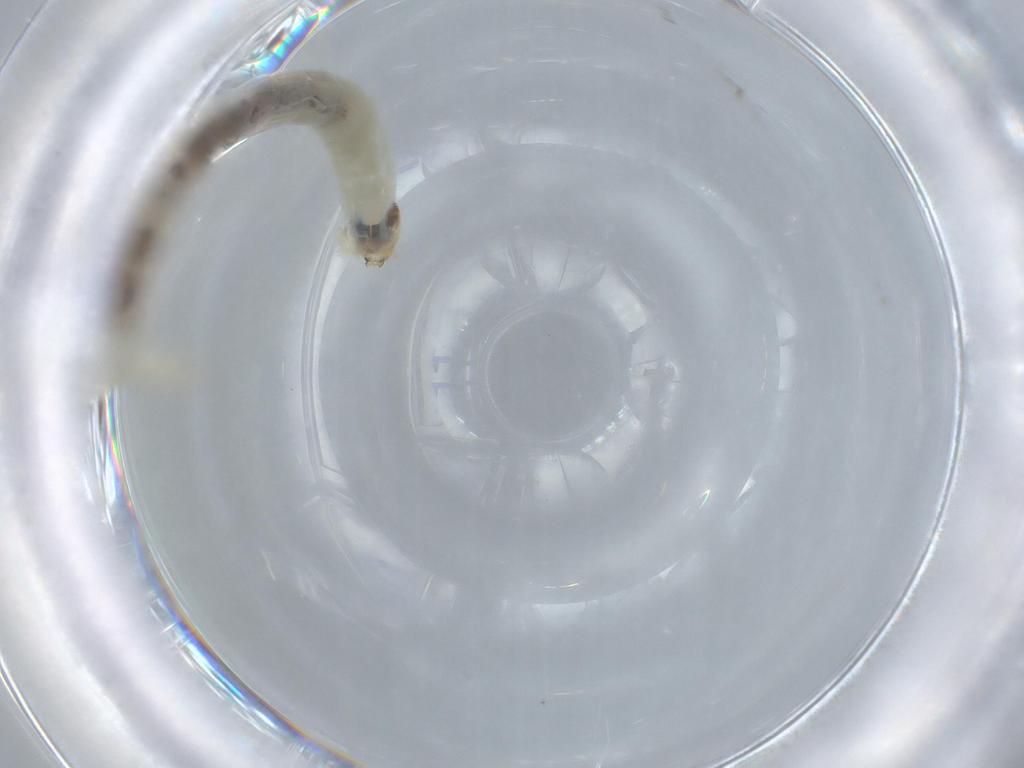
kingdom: Animalia
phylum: Arthropoda
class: Insecta
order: Diptera
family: Chironomidae
